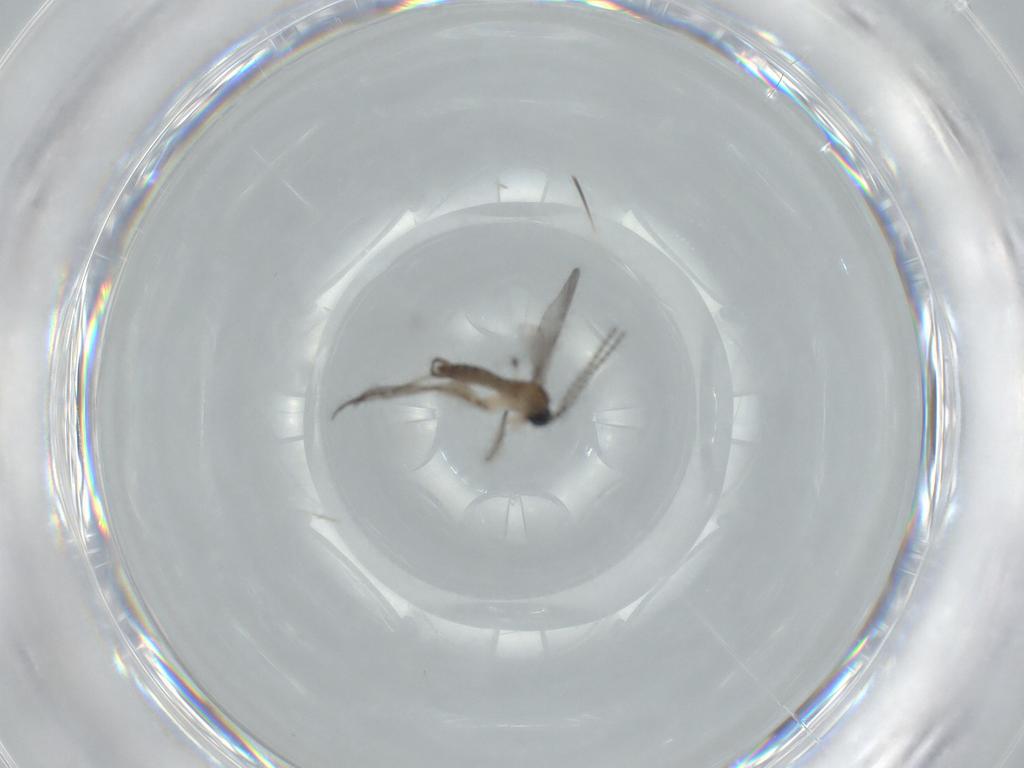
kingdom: Animalia
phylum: Arthropoda
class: Insecta
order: Diptera
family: Sciaridae
